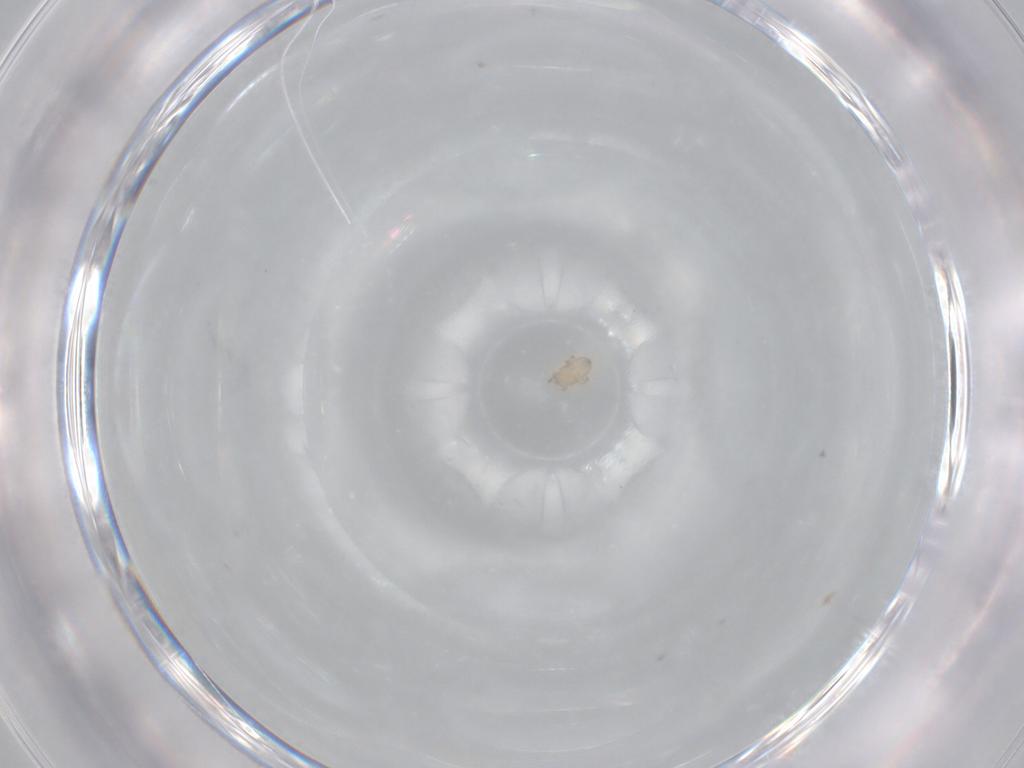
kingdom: Animalia
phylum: Arthropoda
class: Arachnida
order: Mesostigmata
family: Microgyniidae
